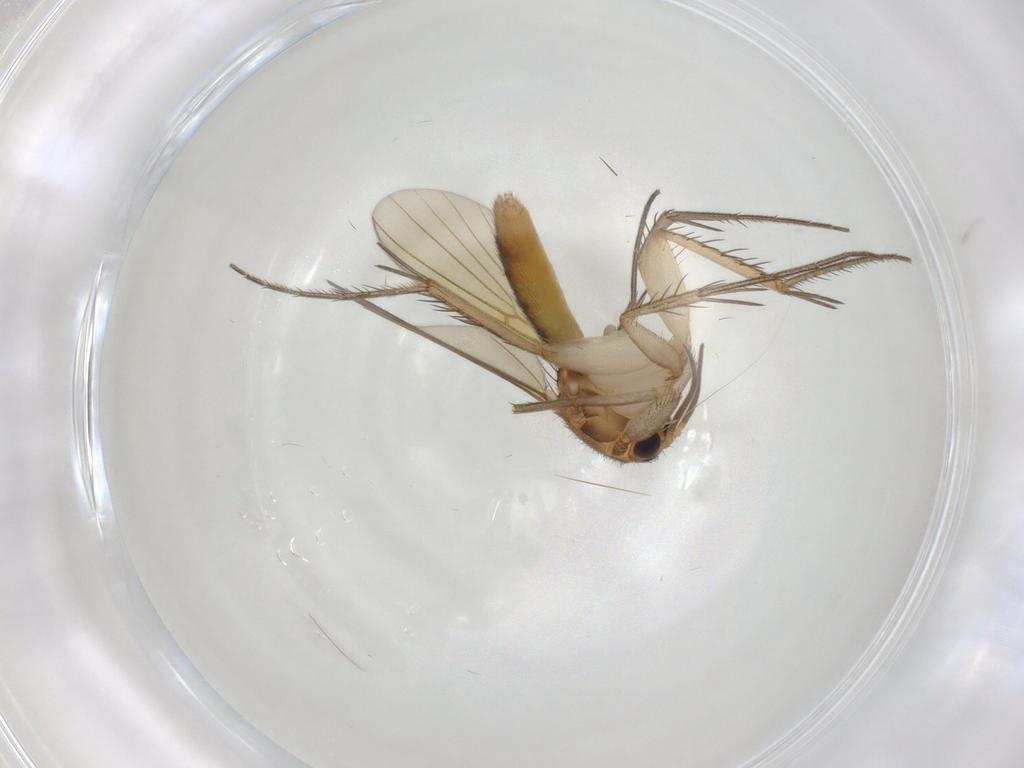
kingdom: Animalia
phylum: Arthropoda
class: Insecta
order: Diptera
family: Mycetophilidae
